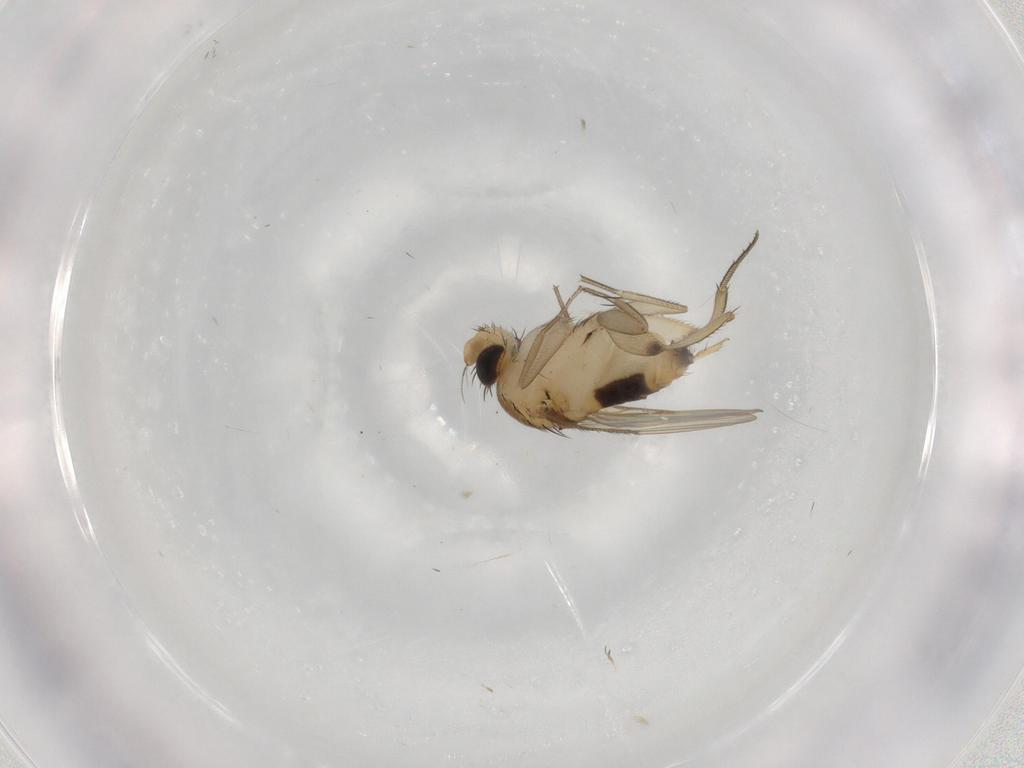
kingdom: Animalia
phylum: Arthropoda
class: Insecta
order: Diptera
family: Phoridae
